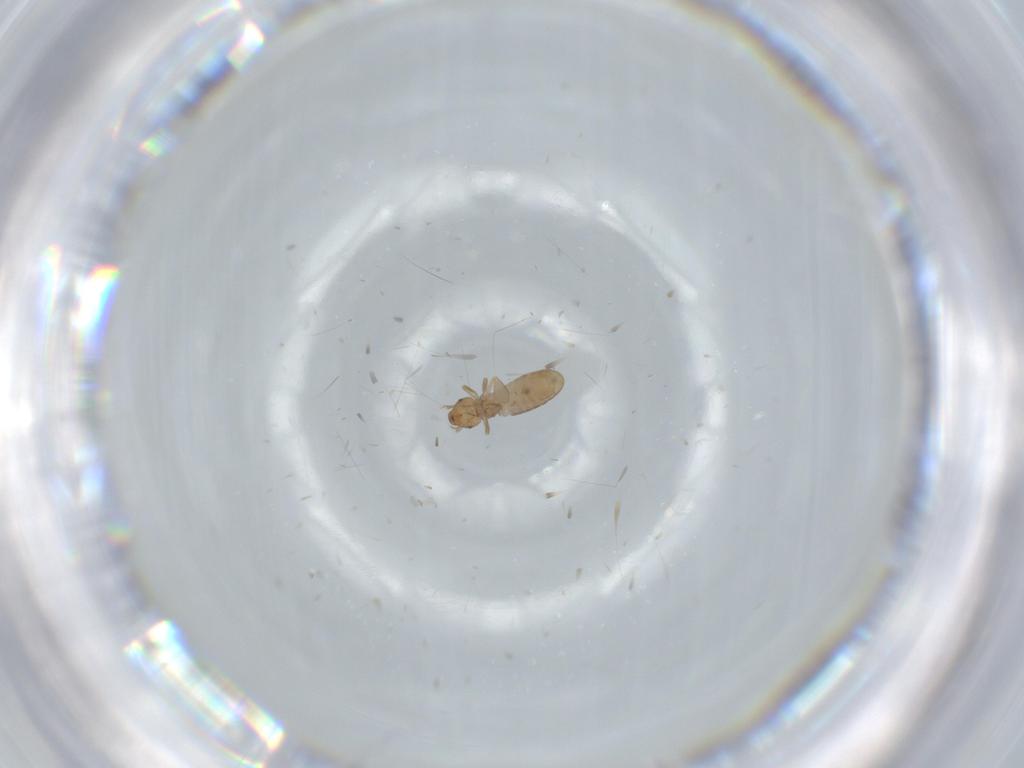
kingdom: Animalia
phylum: Arthropoda
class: Insecta
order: Psocodea
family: Liposcelididae
